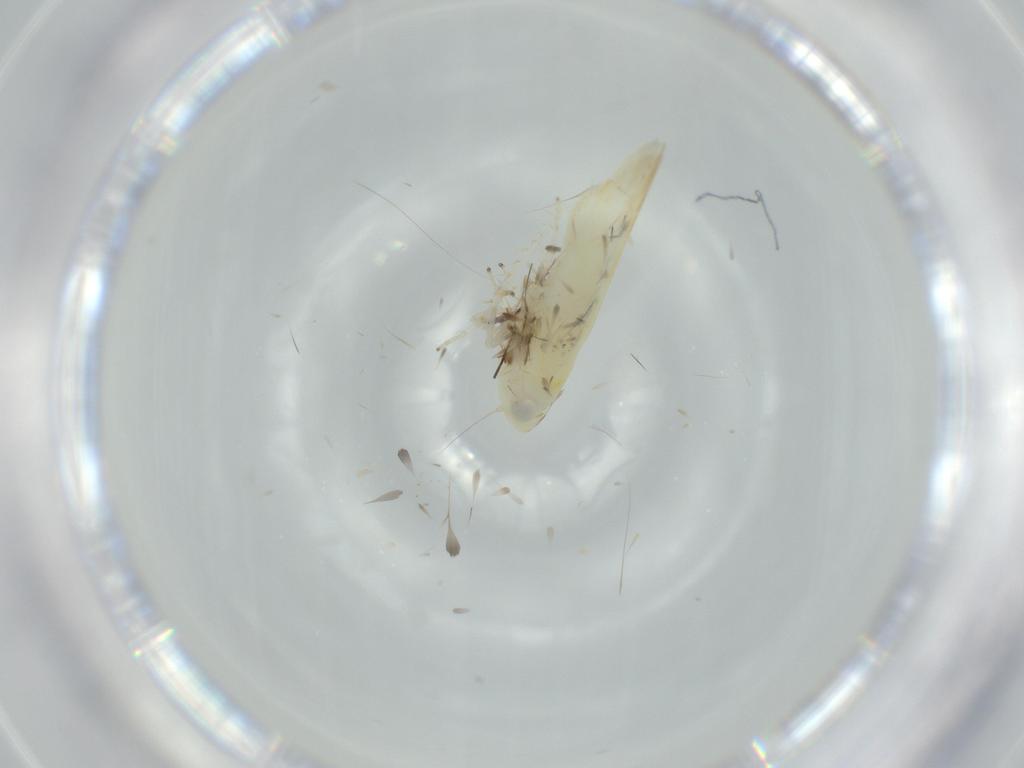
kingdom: Animalia
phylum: Arthropoda
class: Insecta
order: Hemiptera
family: Cicadellidae
